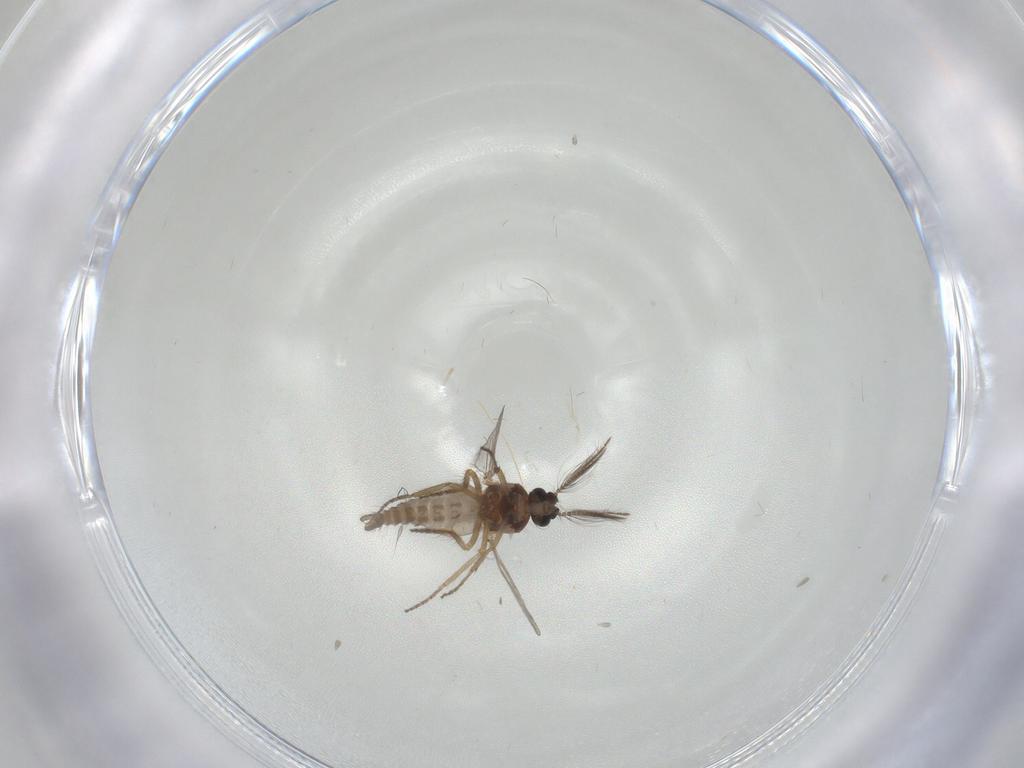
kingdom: Animalia
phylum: Arthropoda
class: Insecta
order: Diptera
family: Ceratopogonidae
